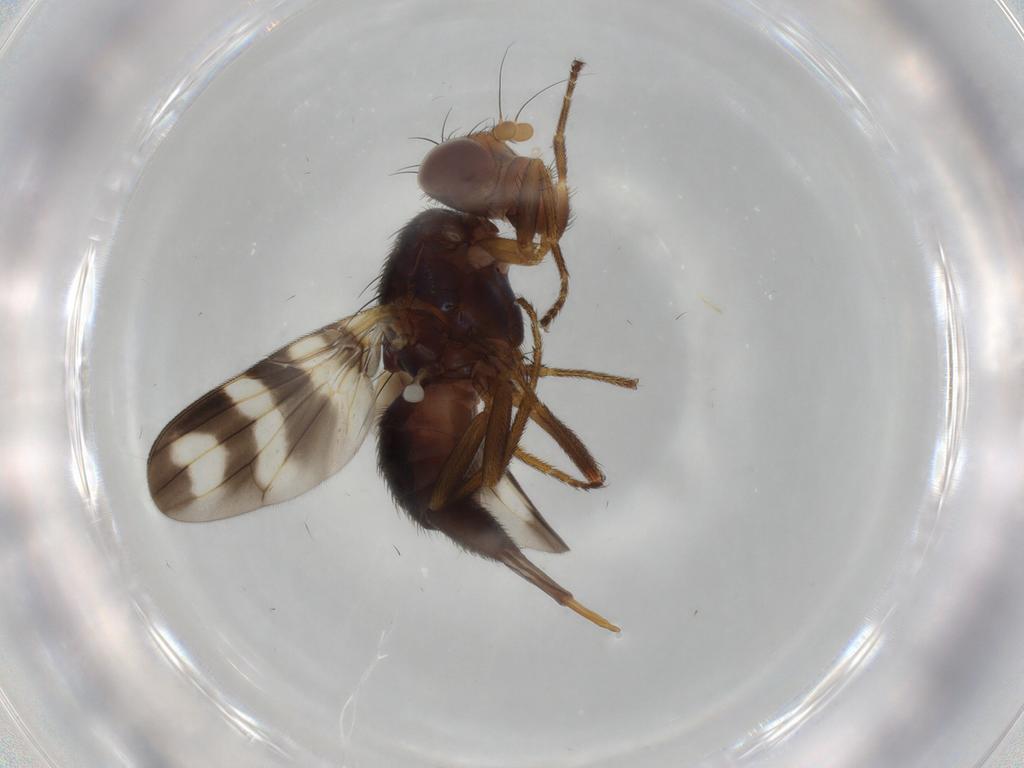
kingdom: Animalia
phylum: Arthropoda
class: Insecta
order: Diptera
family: Ulidiidae
